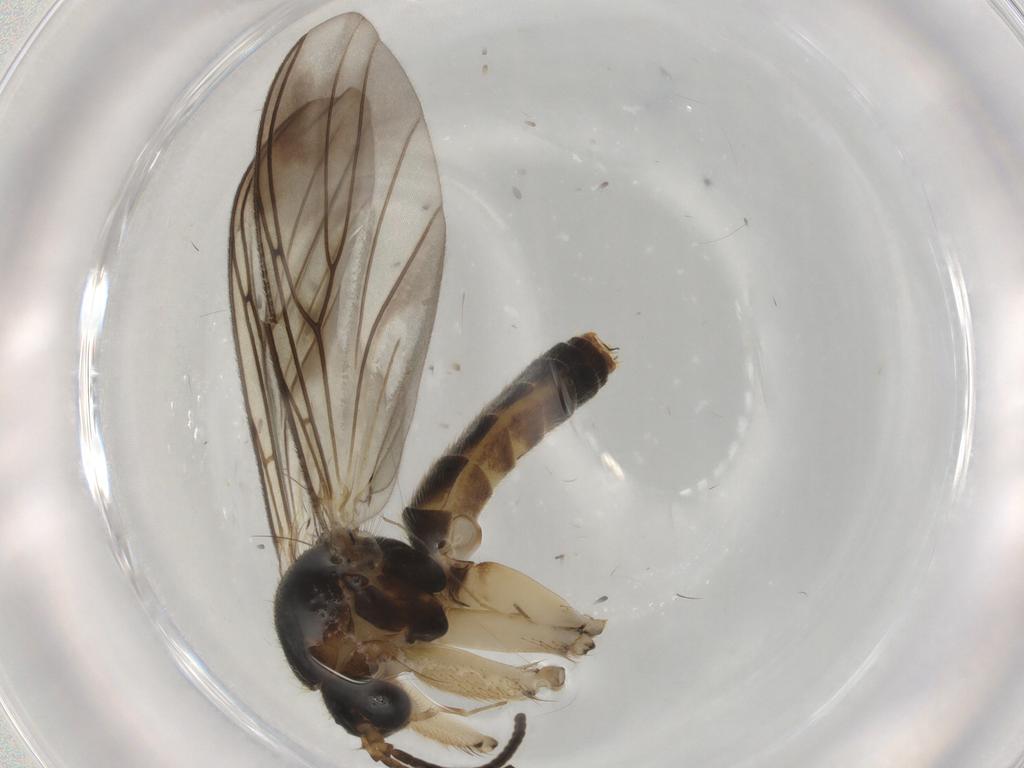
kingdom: Animalia
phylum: Arthropoda
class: Insecta
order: Diptera
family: Mycetophilidae
